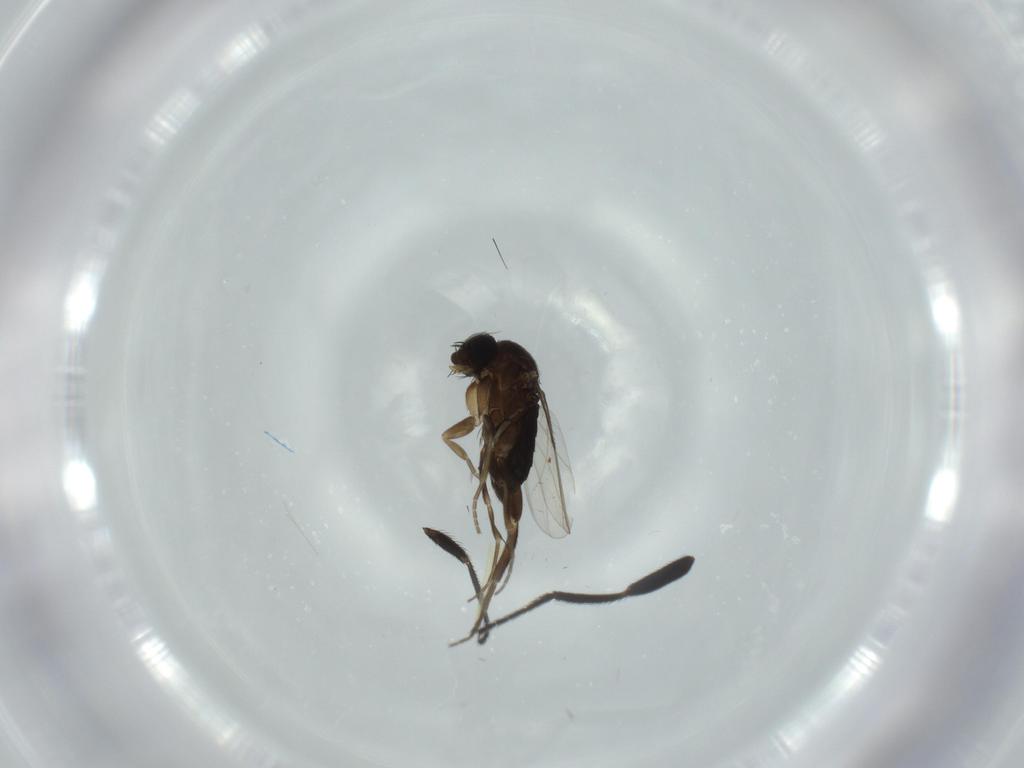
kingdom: Animalia
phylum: Arthropoda
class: Insecta
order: Diptera
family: Phoridae
